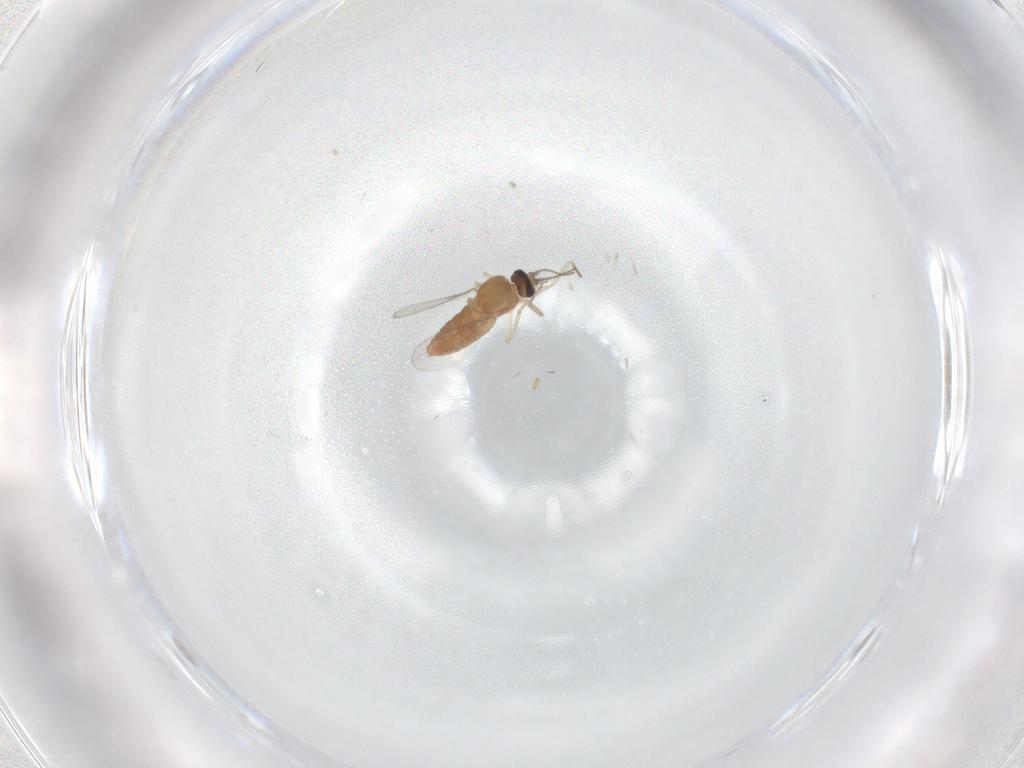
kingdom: Animalia
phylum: Arthropoda
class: Insecta
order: Diptera
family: Ceratopogonidae
